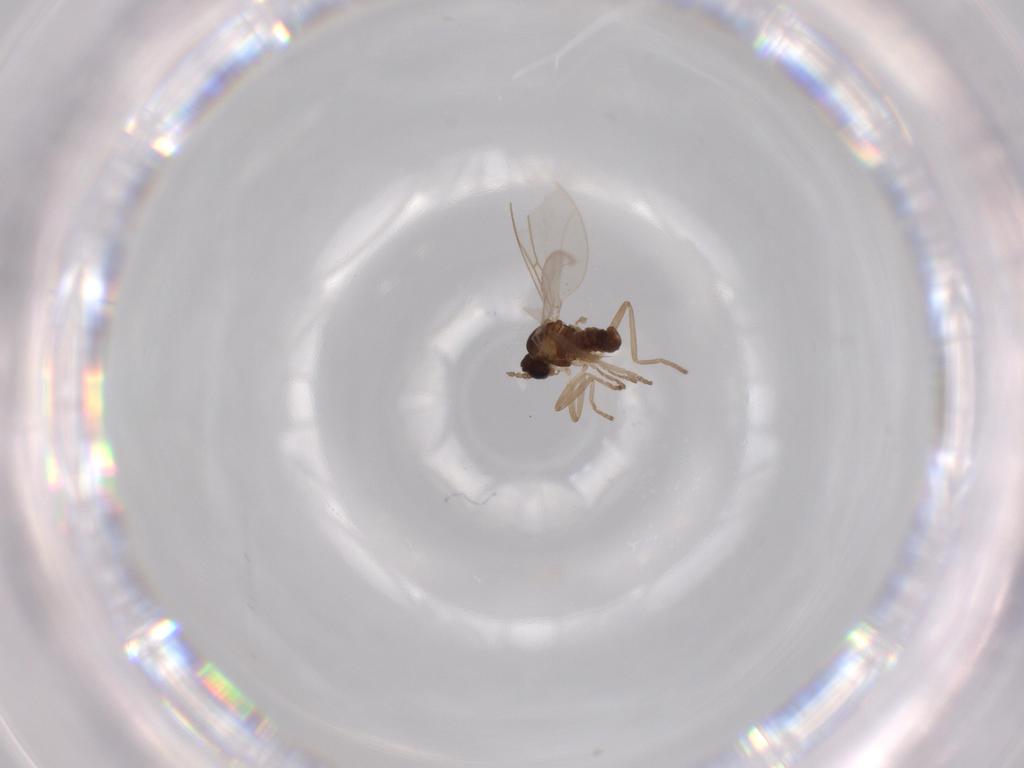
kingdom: Animalia
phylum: Arthropoda
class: Insecta
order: Diptera
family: Cecidomyiidae
